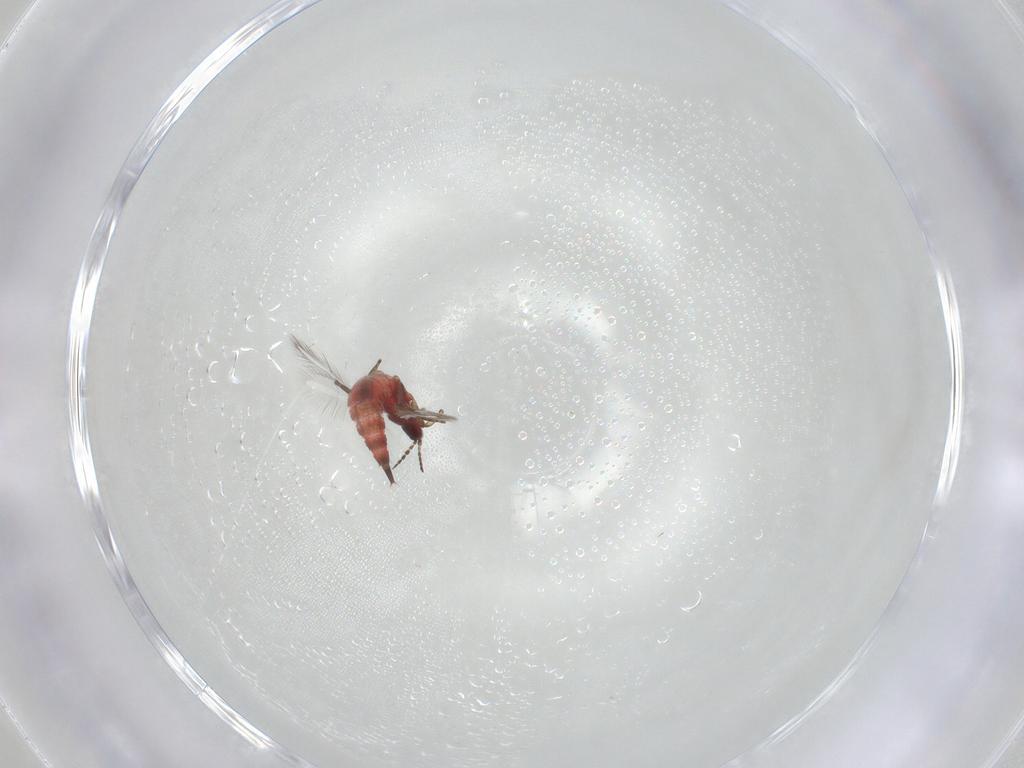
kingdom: Animalia
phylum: Arthropoda
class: Insecta
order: Thysanoptera
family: Phlaeothripidae
